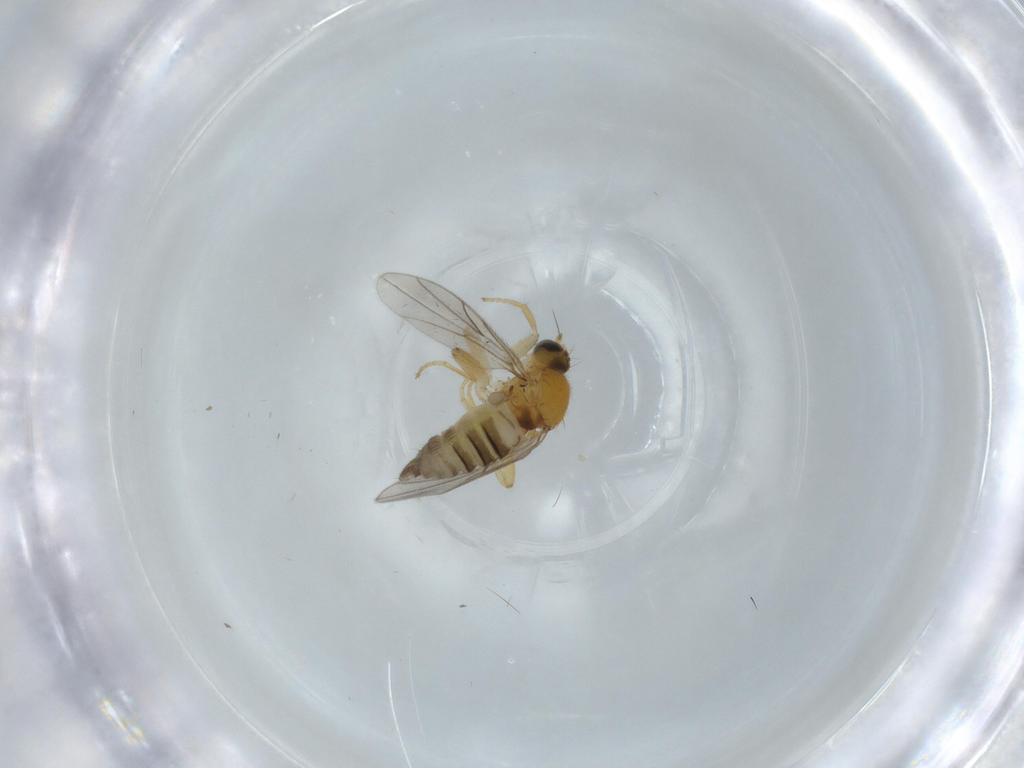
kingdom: Animalia
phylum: Arthropoda
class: Insecta
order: Diptera
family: Hybotidae
